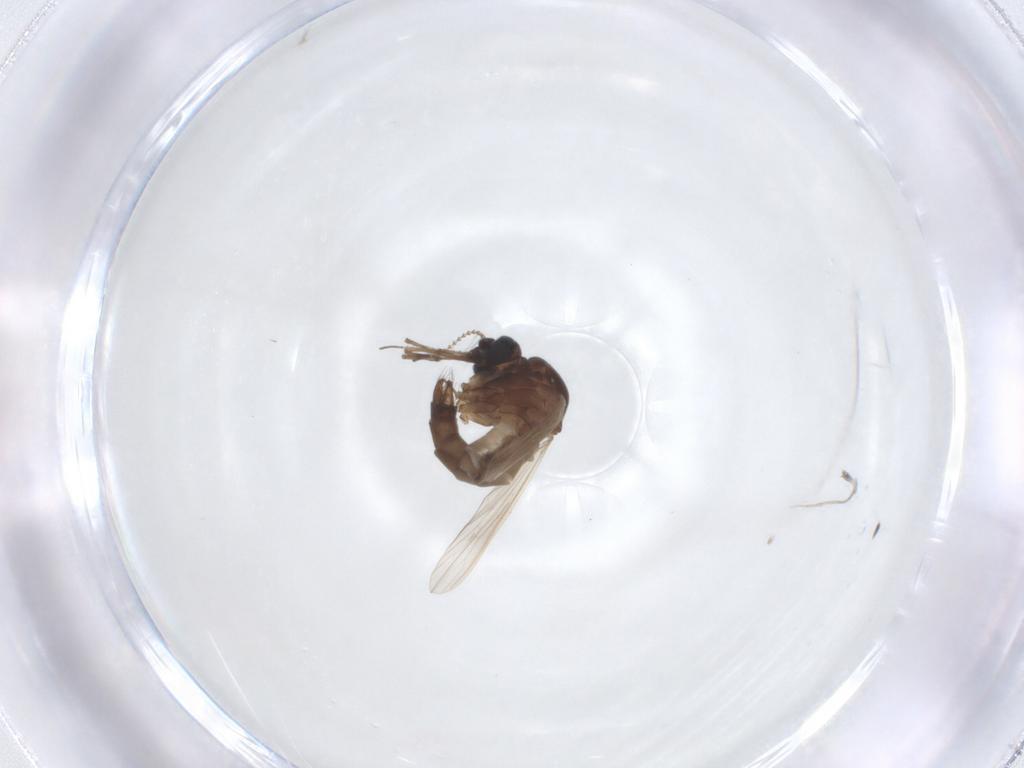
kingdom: Animalia
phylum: Arthropoda
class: Insecta
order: Diptera
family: Chironomidae
